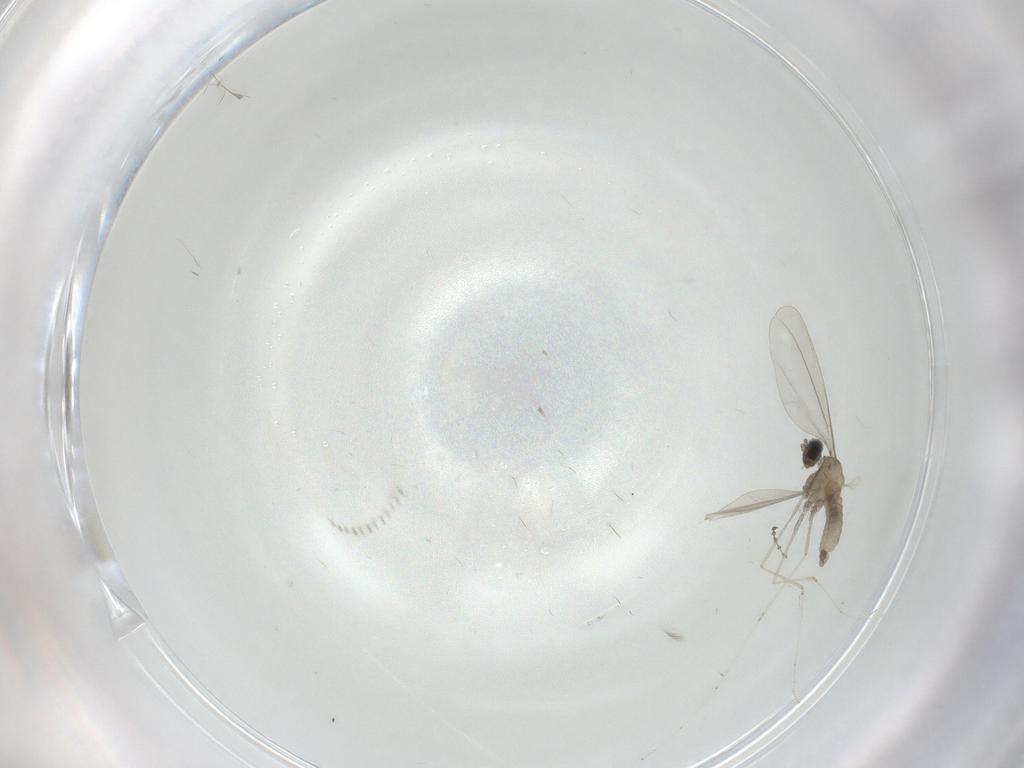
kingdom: Animalia
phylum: Arthropoda
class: Insecta
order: Diptera
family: Cecidomyiidae
